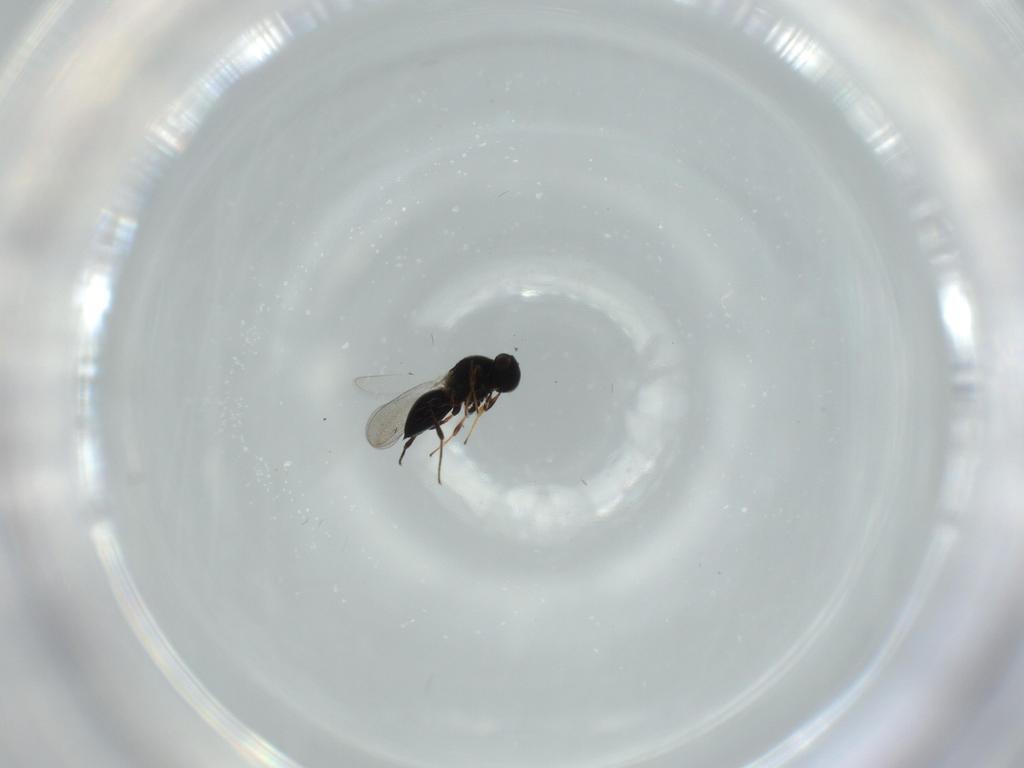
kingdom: Animalia
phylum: Arthropoda
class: Insecta
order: Hymenoptera
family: Platygastridae
